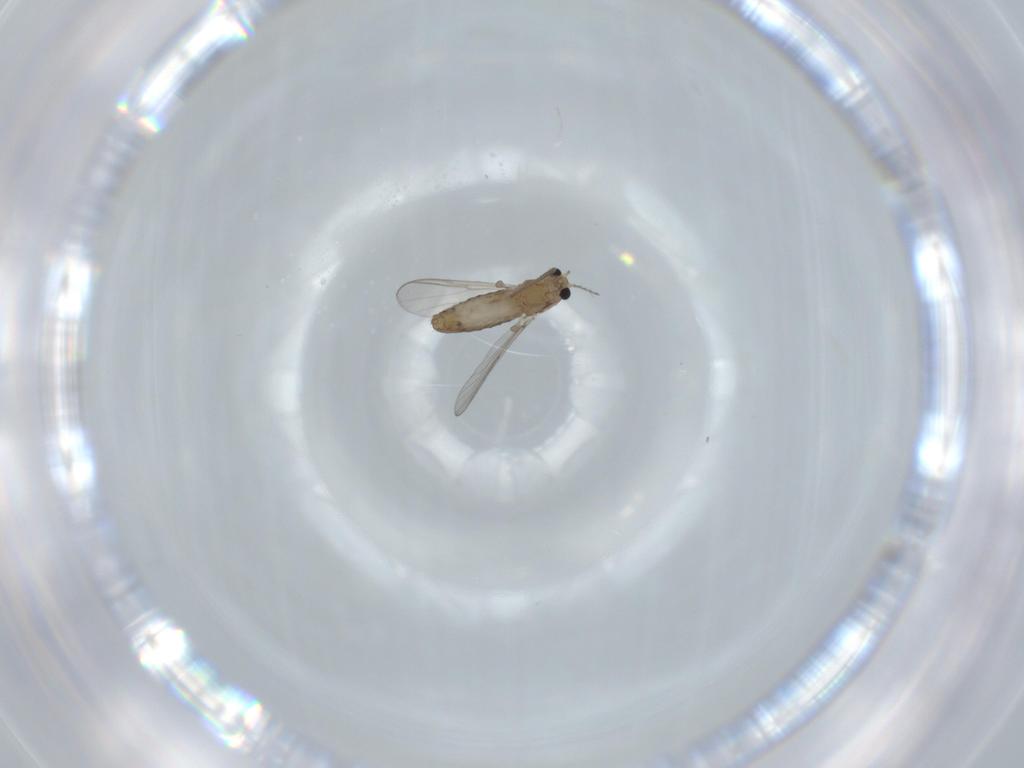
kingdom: Animalia
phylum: Arthropoda
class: Insecta
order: Diptera
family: Chironomidae
